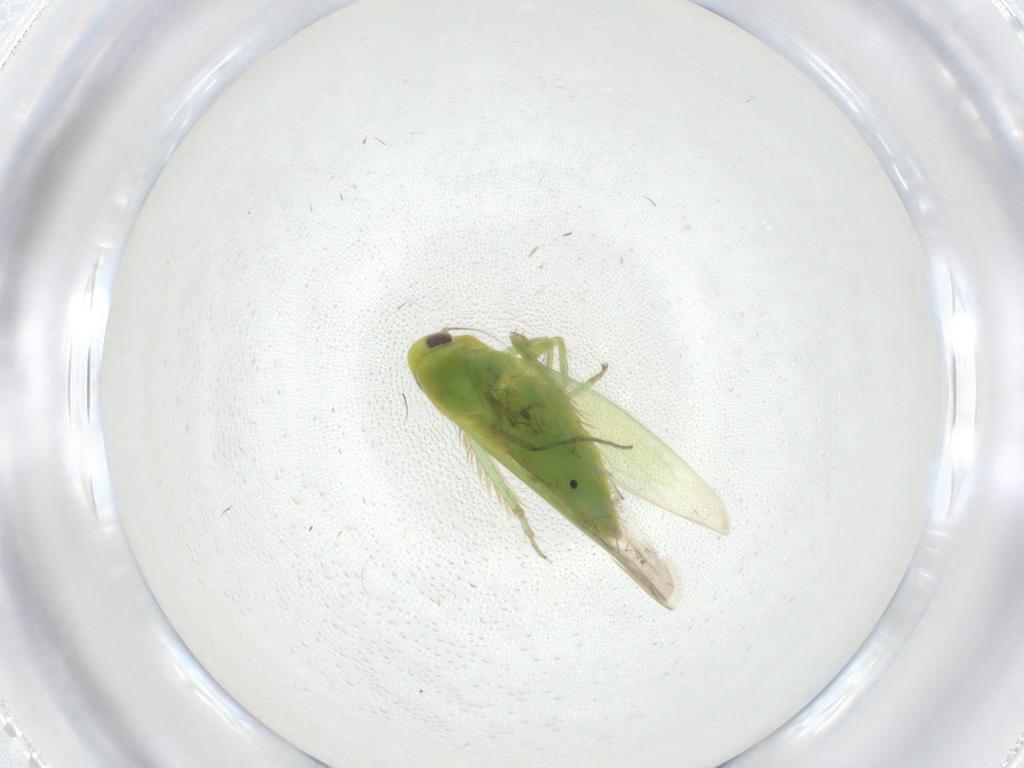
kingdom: Animalia
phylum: Arthropoda
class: Insecta
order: Hemiptera
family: Cicadellidae
